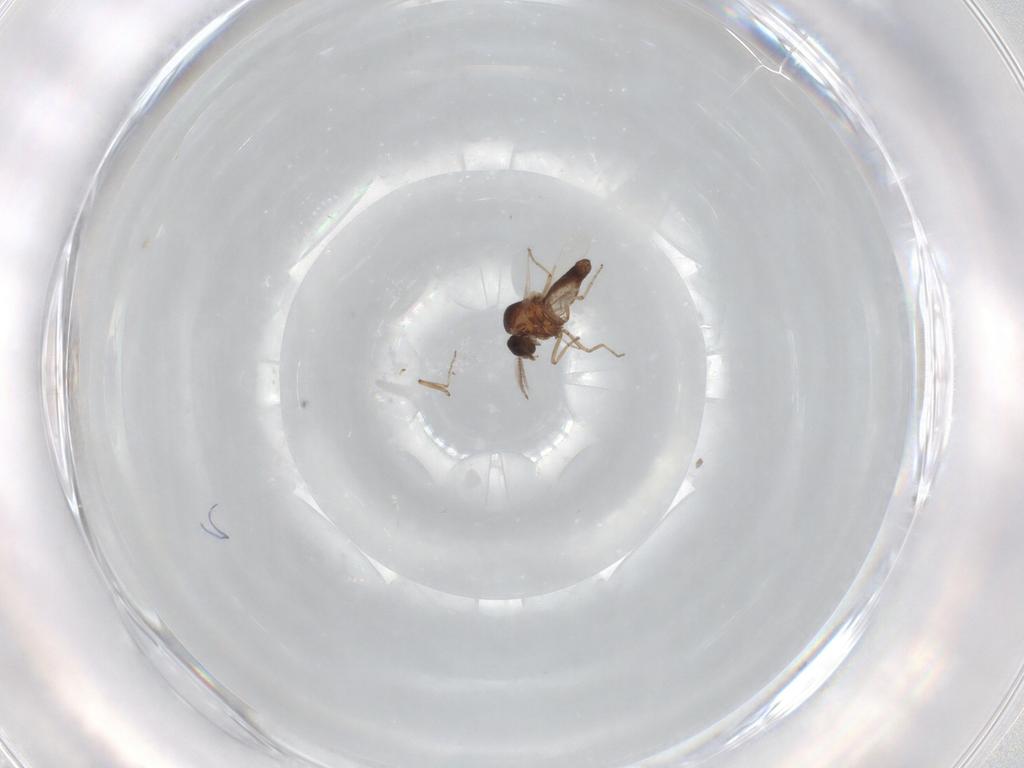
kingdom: Animalia
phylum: Arthropoda
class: Insecta
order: Diptera
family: Ceratopogonidae
